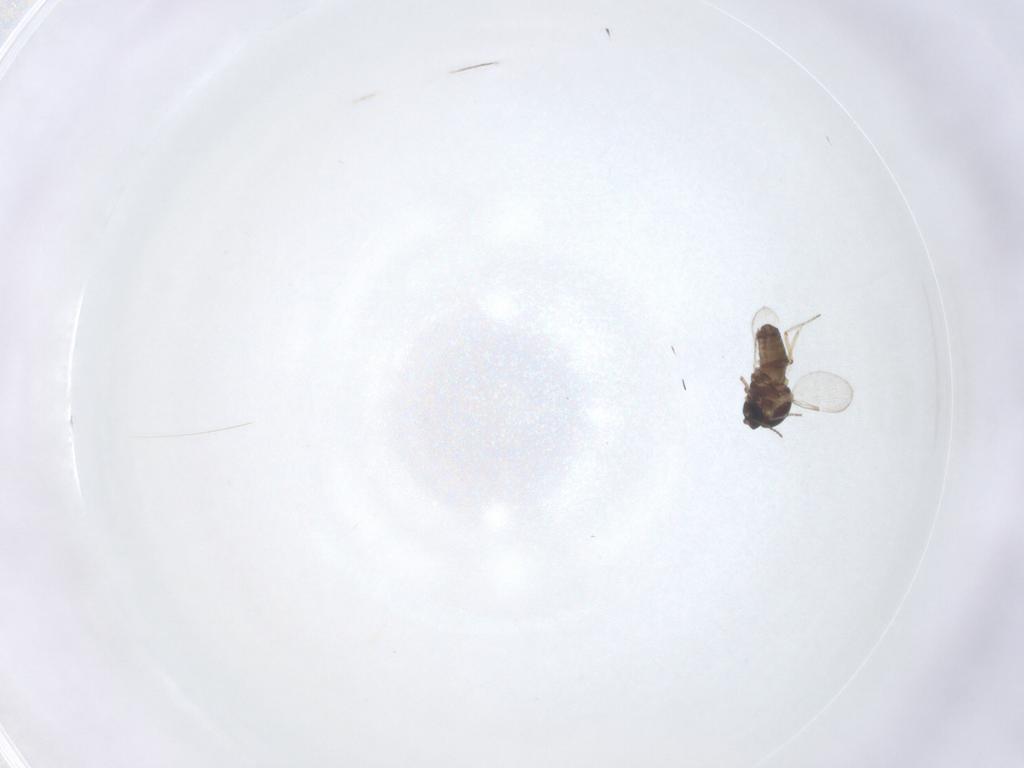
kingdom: Animalia
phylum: Arthropoda
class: Insecta
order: Diptera
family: Ceratopogonidae
